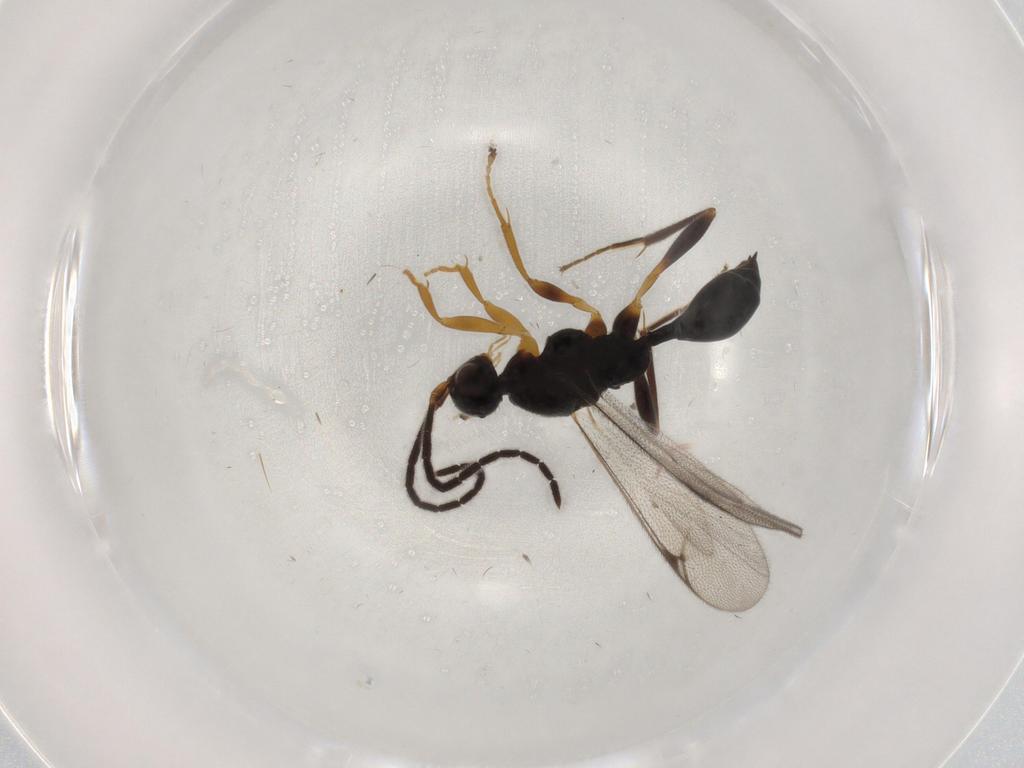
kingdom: Animalia
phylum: Arthropoda
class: Insecta
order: Hymenoptera
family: Proctotrupidae
